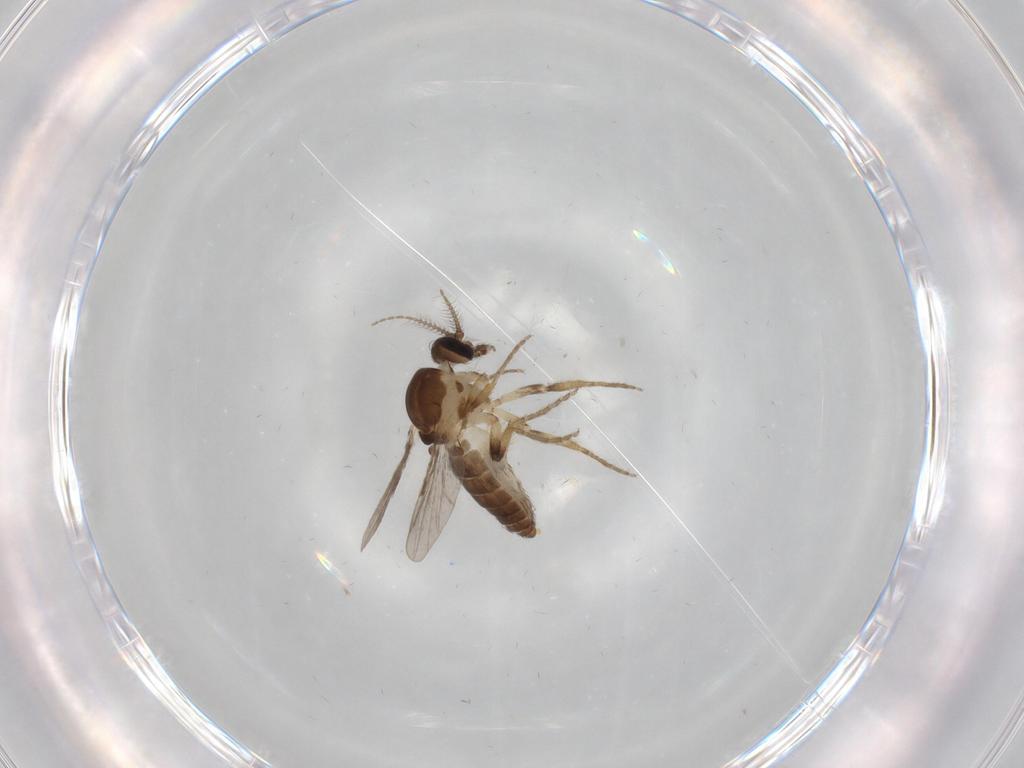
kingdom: Animalia
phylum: Arthropoda
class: Insecta
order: Diptera
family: Ceratopogonidae
